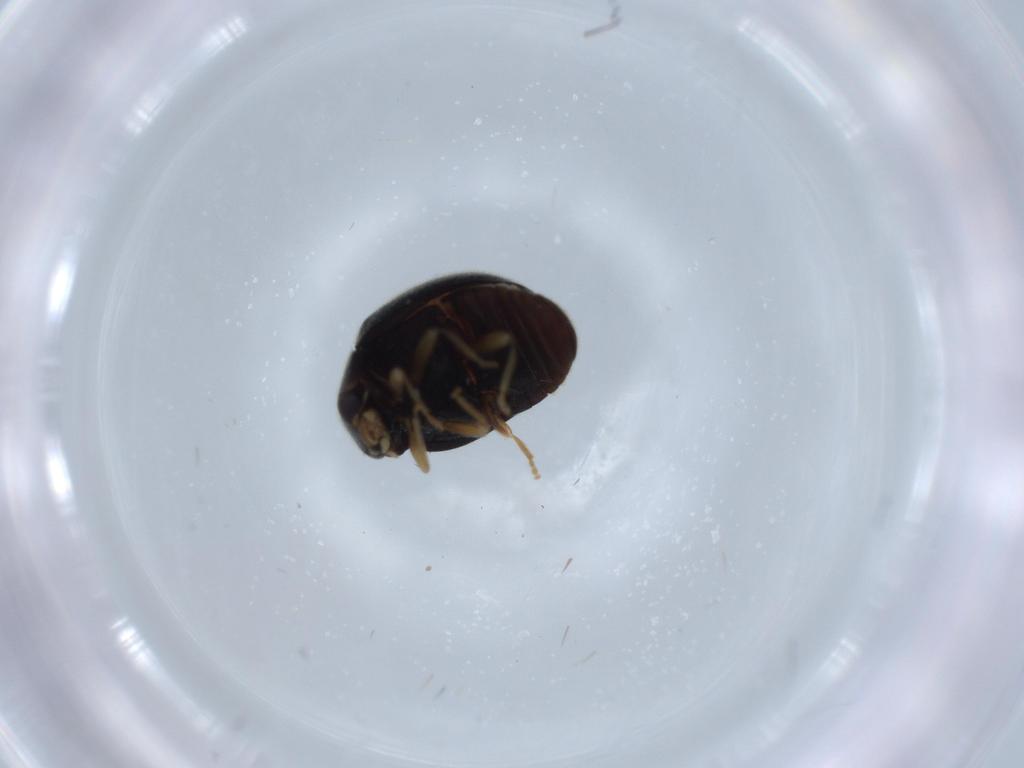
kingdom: Animalia
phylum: Arthropoda
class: Insecta
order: Coleoptera
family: Coccinellidae
